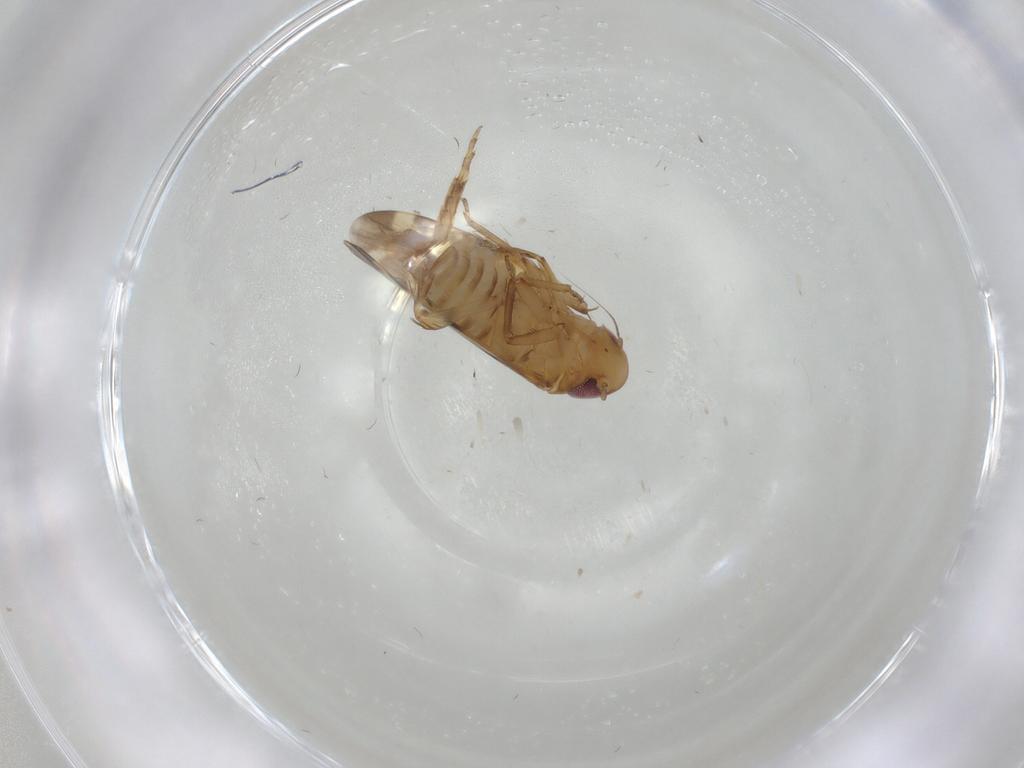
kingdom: Animalia
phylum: Arthropoda
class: Insecta
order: Hemiptera
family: Cicadellidae
